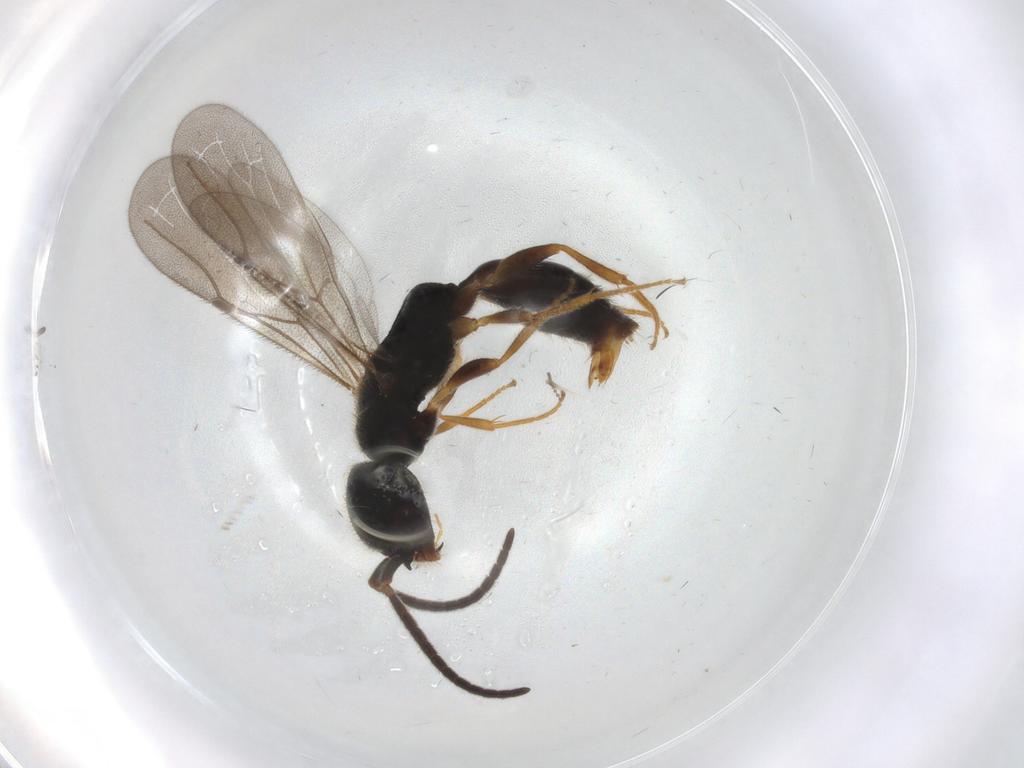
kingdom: Animalia
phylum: Arthropoda
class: Insecta
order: Hymenoptera
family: Bethylidae
